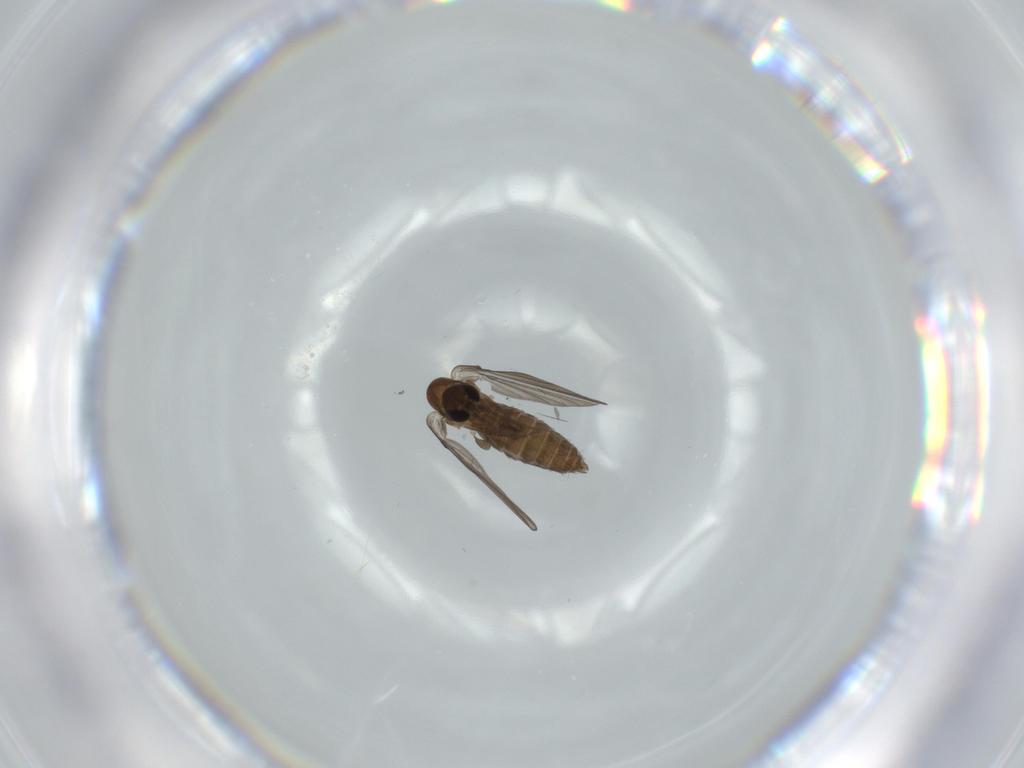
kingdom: Animalia
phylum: Arthropoda
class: Insecta
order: Diptera
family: Psychodidae
